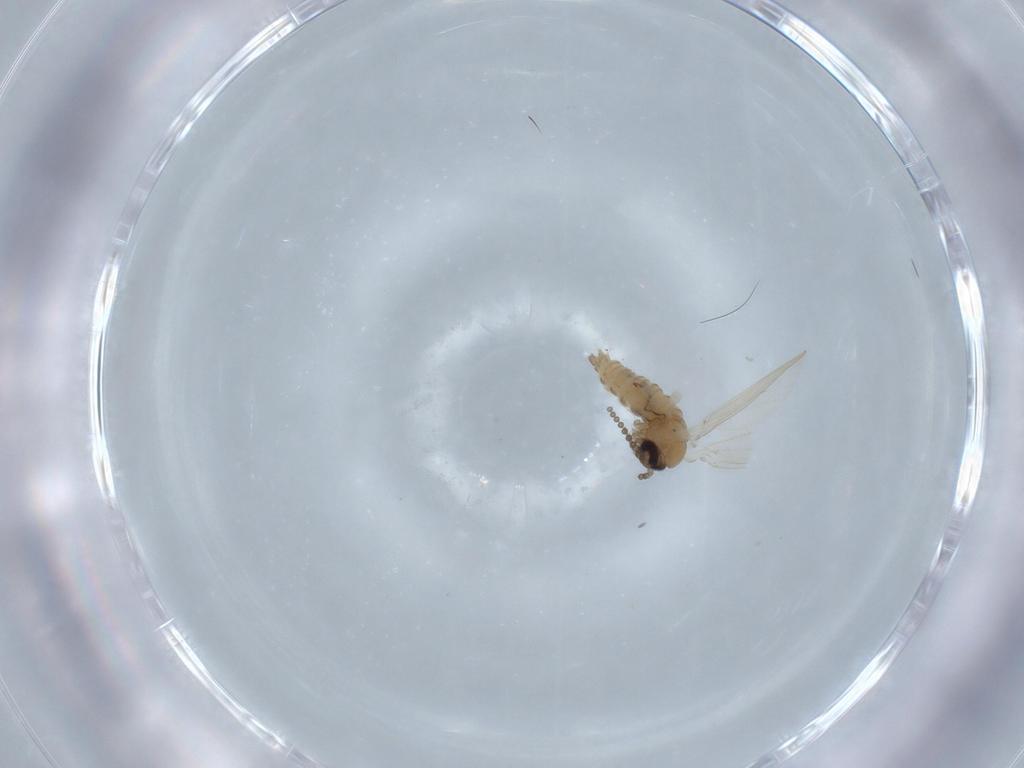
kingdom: Animalia
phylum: Arthropoda
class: Insecta
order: Diptera
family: Psychodidae
